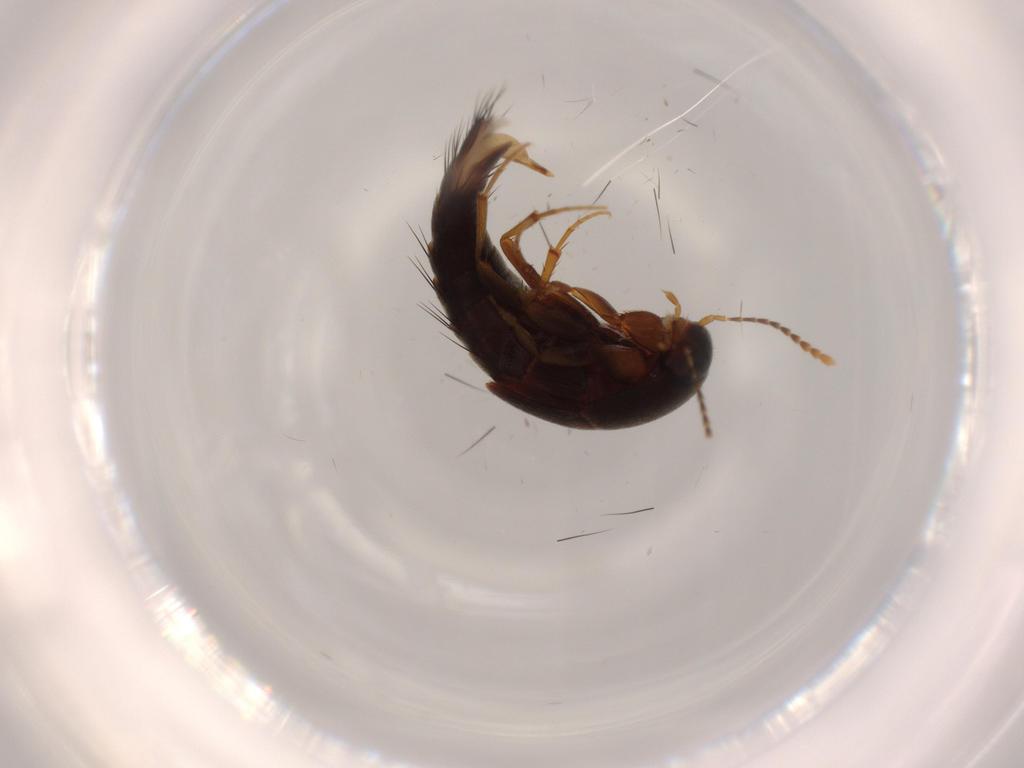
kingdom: Animalia
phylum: Arthropoda
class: Insecta
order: Coleoptera
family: Staphylinidae
